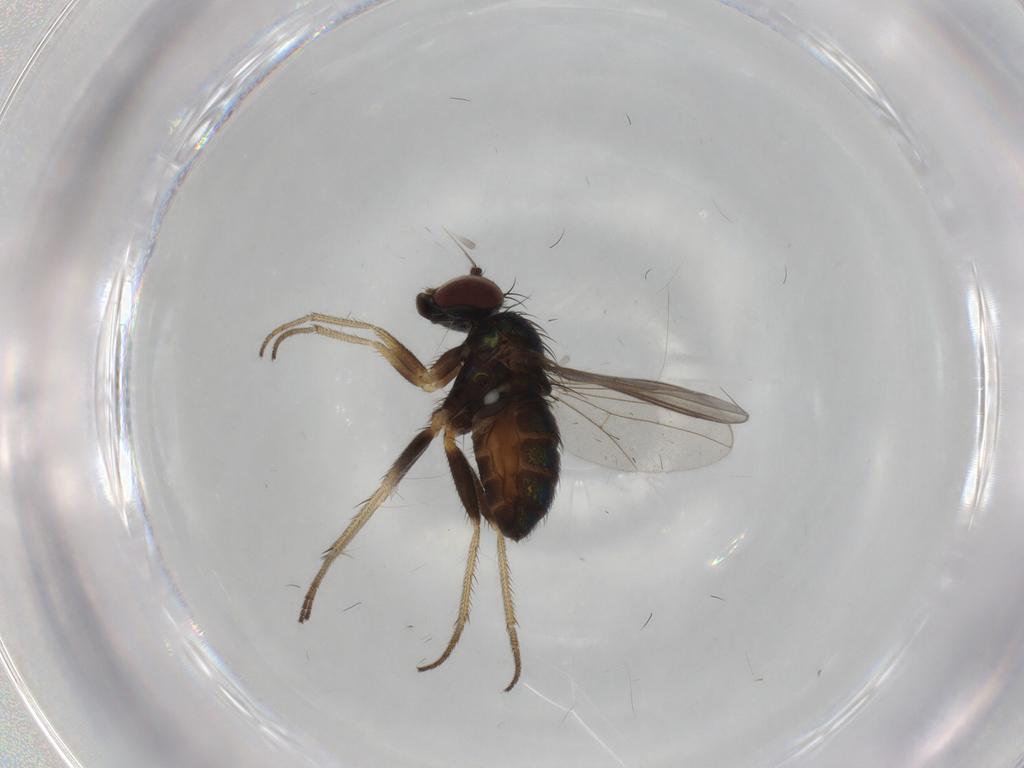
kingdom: Animalia
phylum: Arthropoda
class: Insecta
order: Diptera
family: Dolichopodidae
